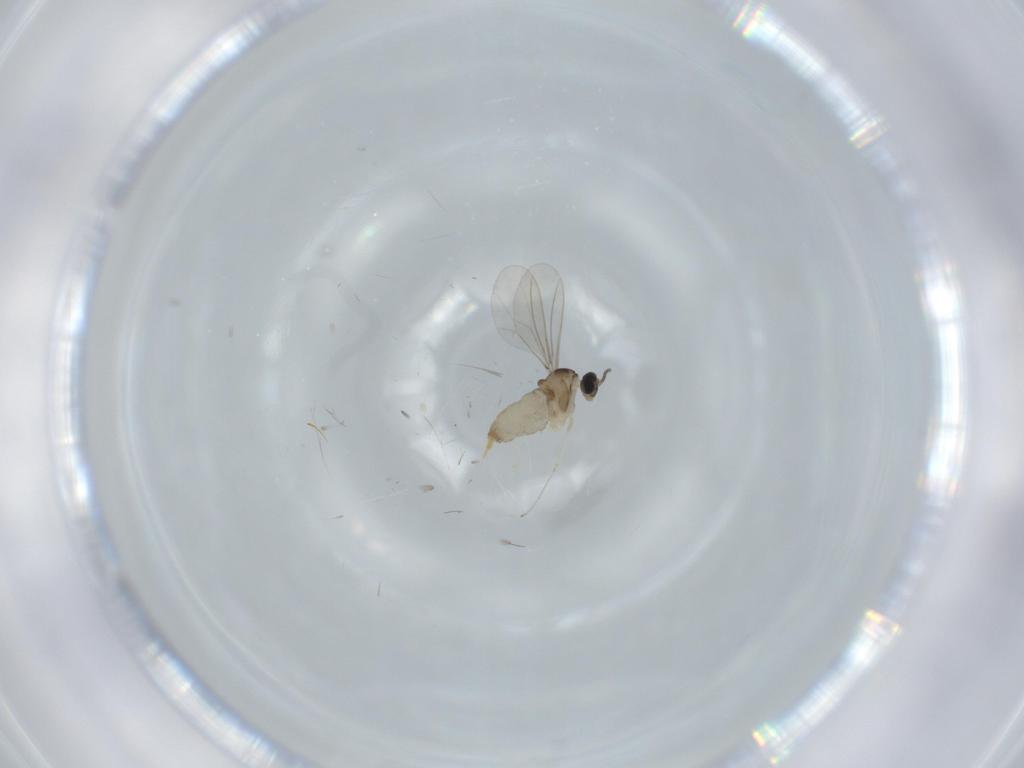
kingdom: Animalia
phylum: Arthropoda
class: Insecta
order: Diptera
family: Cecidomyiidae
